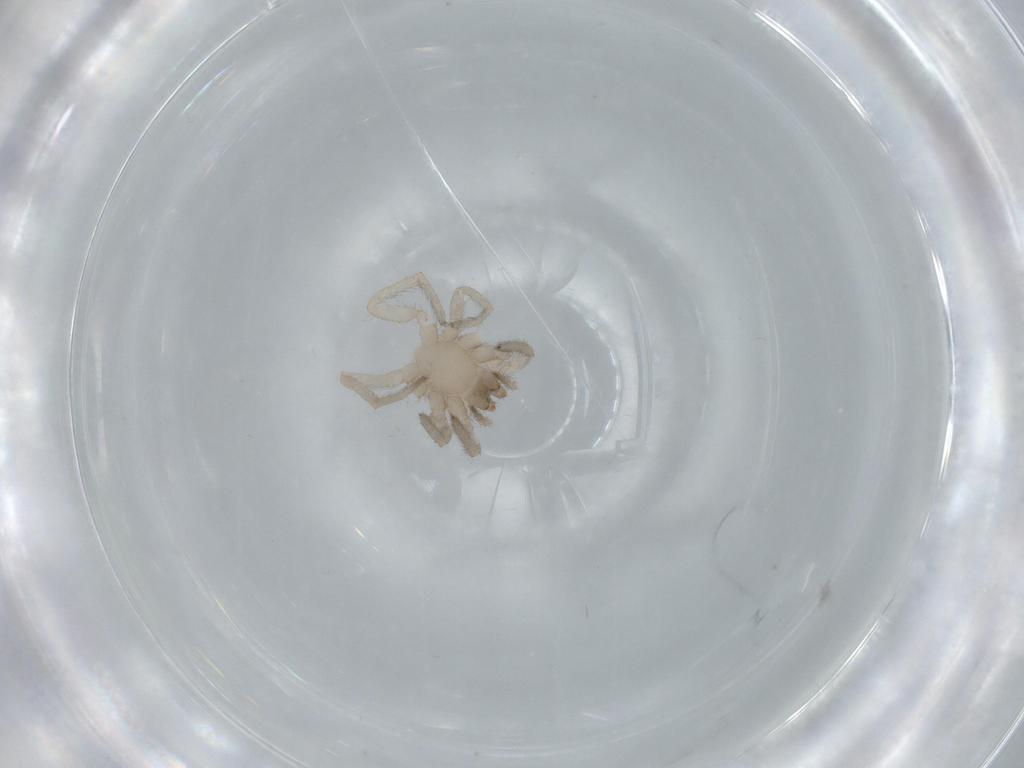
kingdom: Animalia
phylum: Arthropoda
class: Arachnida
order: Araneae
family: Gnaphosidae
